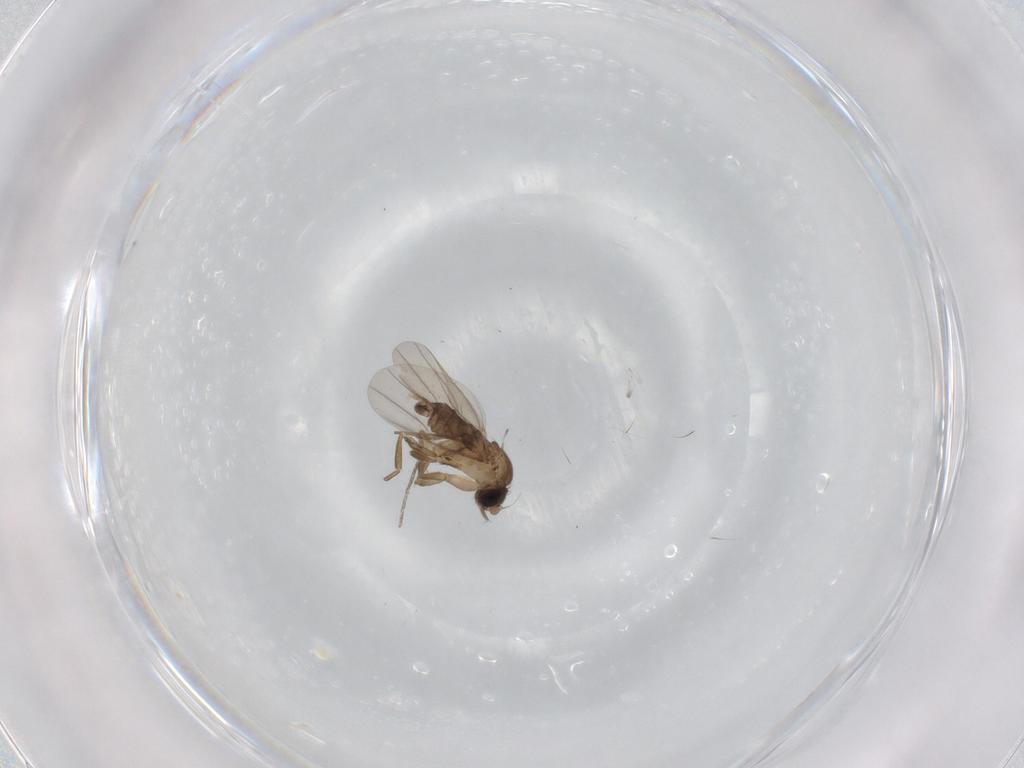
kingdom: Animalia
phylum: Arthropoda
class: Insecta
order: Diptera
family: Phoridae
